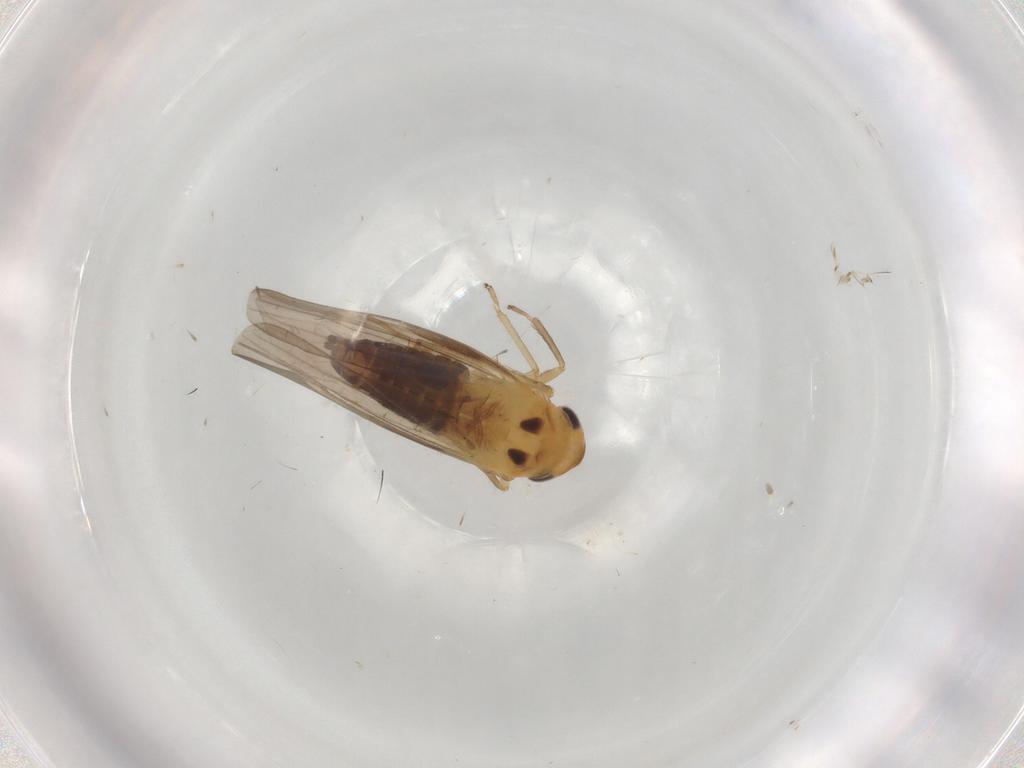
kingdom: Animalia
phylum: Arthropoda
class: Insecta
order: Hemiptera
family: Cicadellidae
